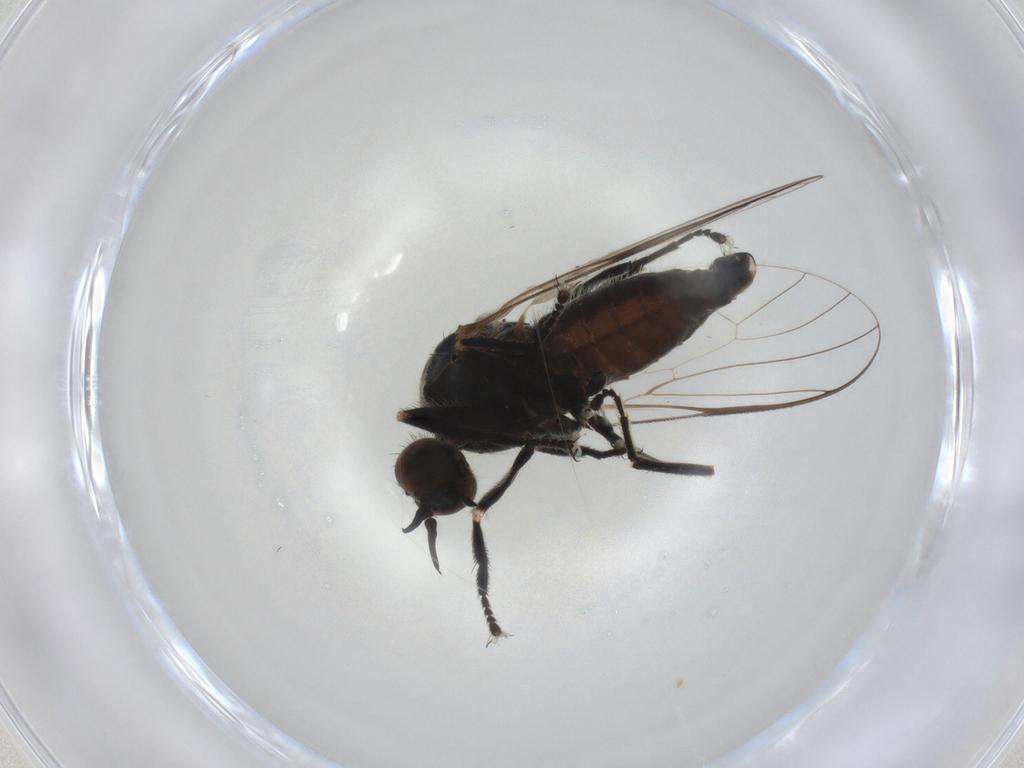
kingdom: Animalia
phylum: Arthropoda
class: Insecta
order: Diptera
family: Empididae
